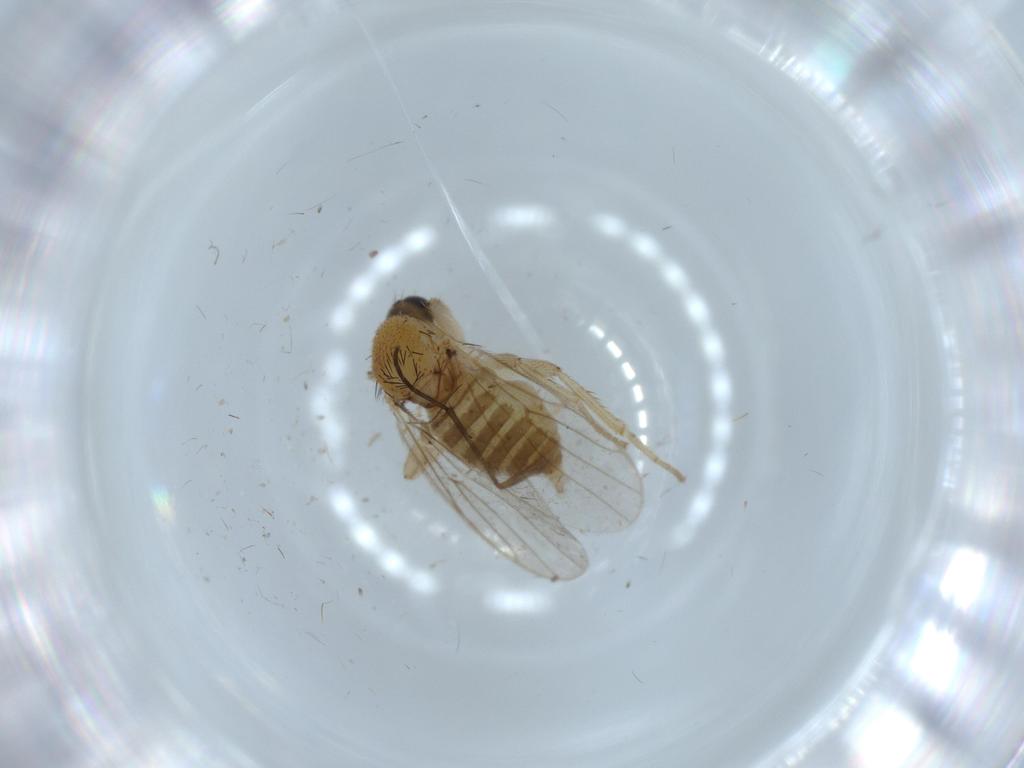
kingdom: Animalia
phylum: Arthropoda
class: Insecta
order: Diptera
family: Hybotidae
